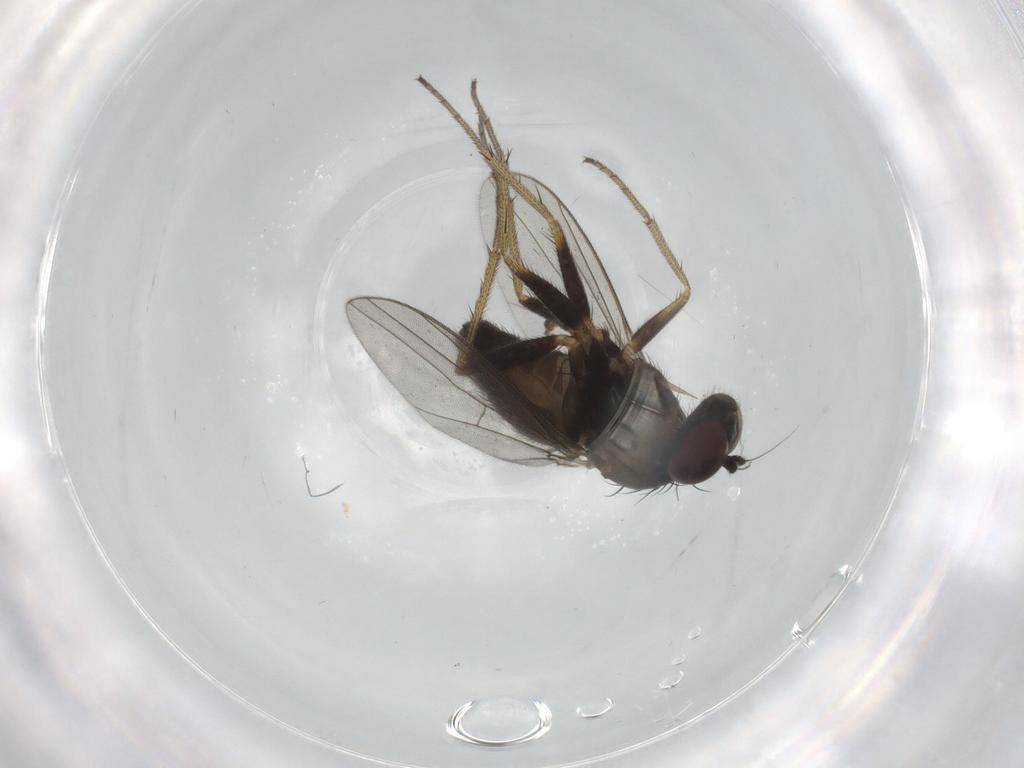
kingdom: Animalia
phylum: Arthropoda
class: Insecta
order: Diptera
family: Dolichopodidae
